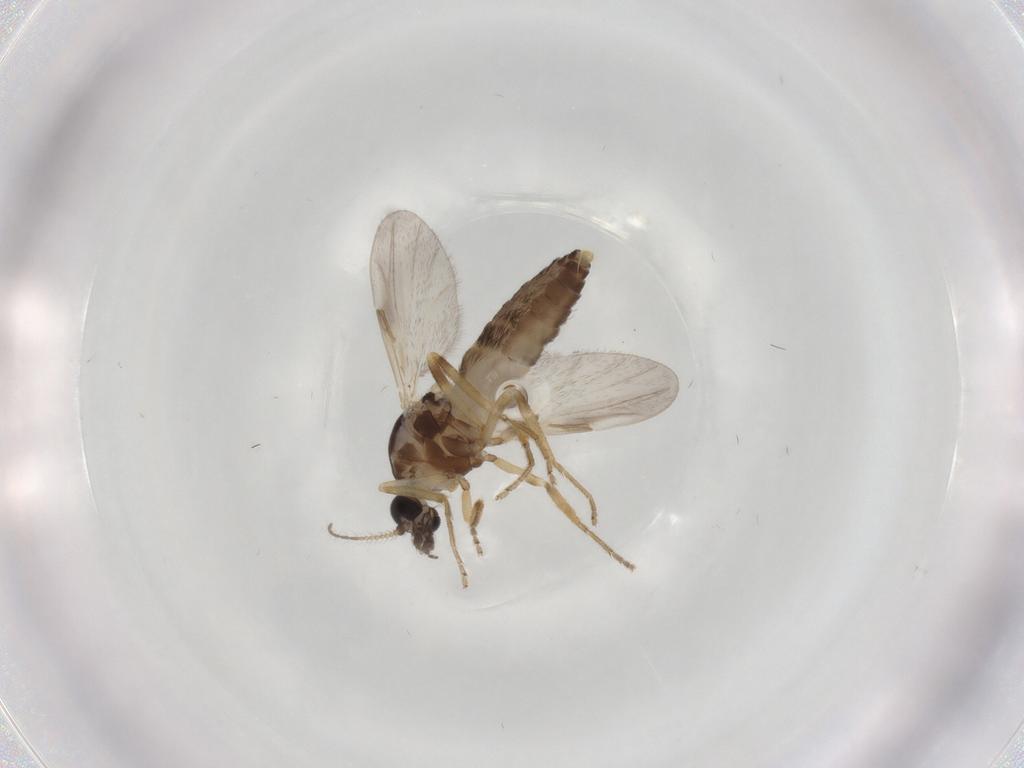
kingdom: Animalia
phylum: Arthropoda
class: Insecta
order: Diptera
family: Ceratopogonidae
